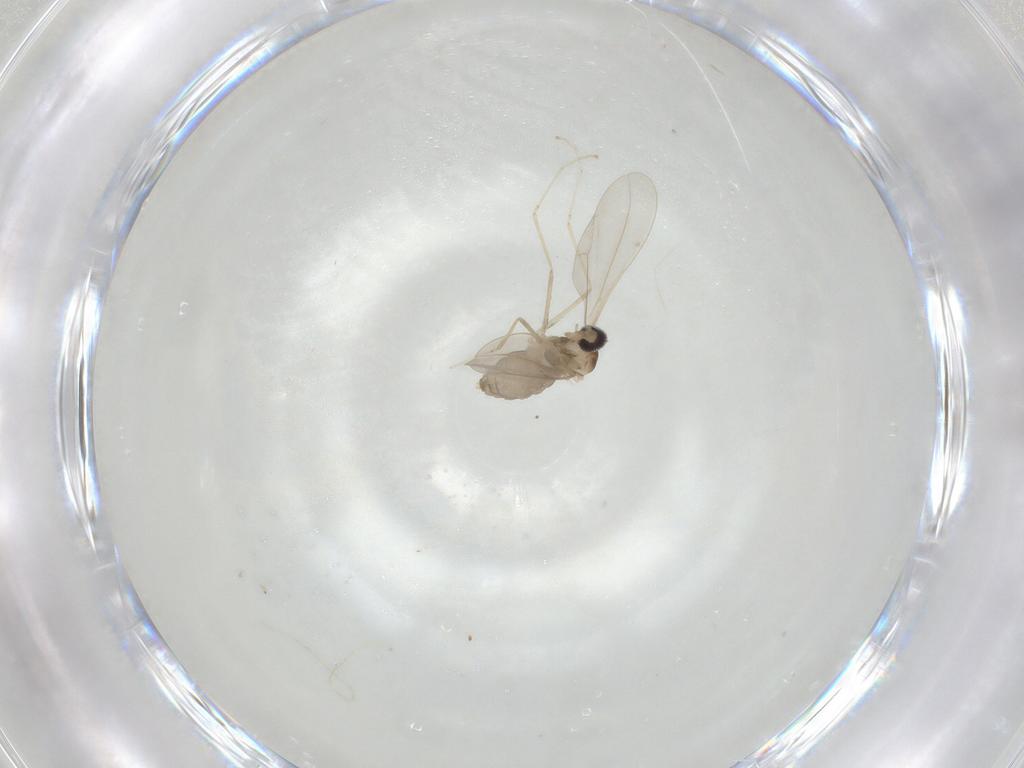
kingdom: Animalia
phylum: Arthropoda
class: Insecta
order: Diptera
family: Cecidomyiidae
